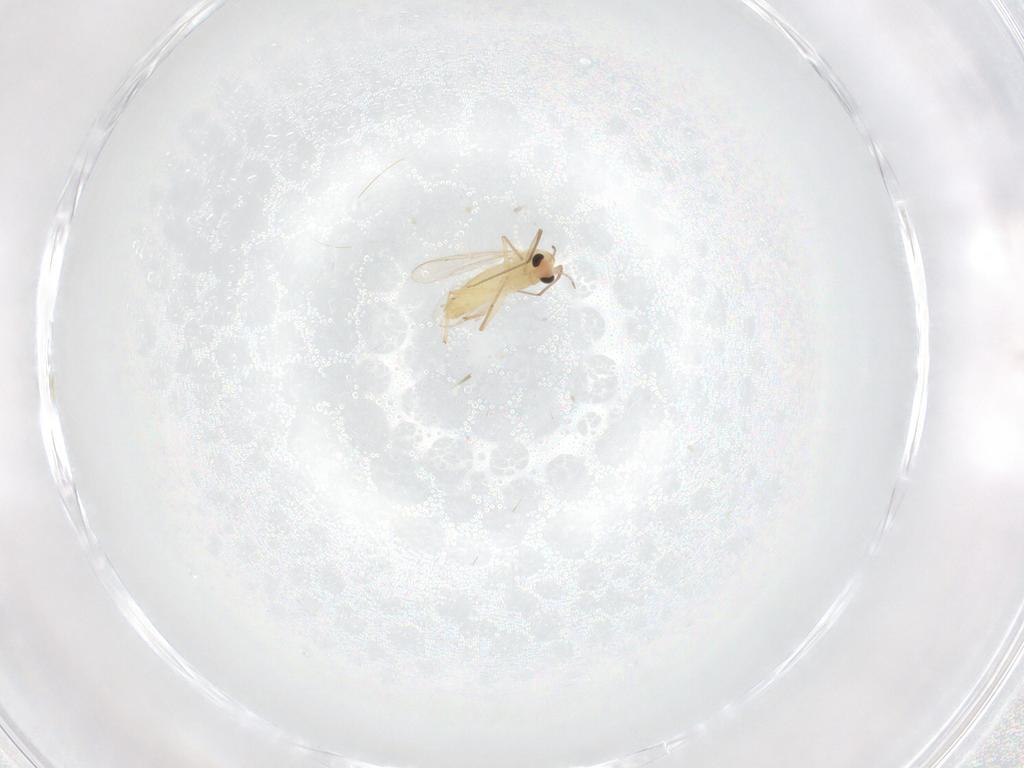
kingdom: Animalia
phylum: Arthropoda
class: Insecta
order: Diptera
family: Chironomidae
